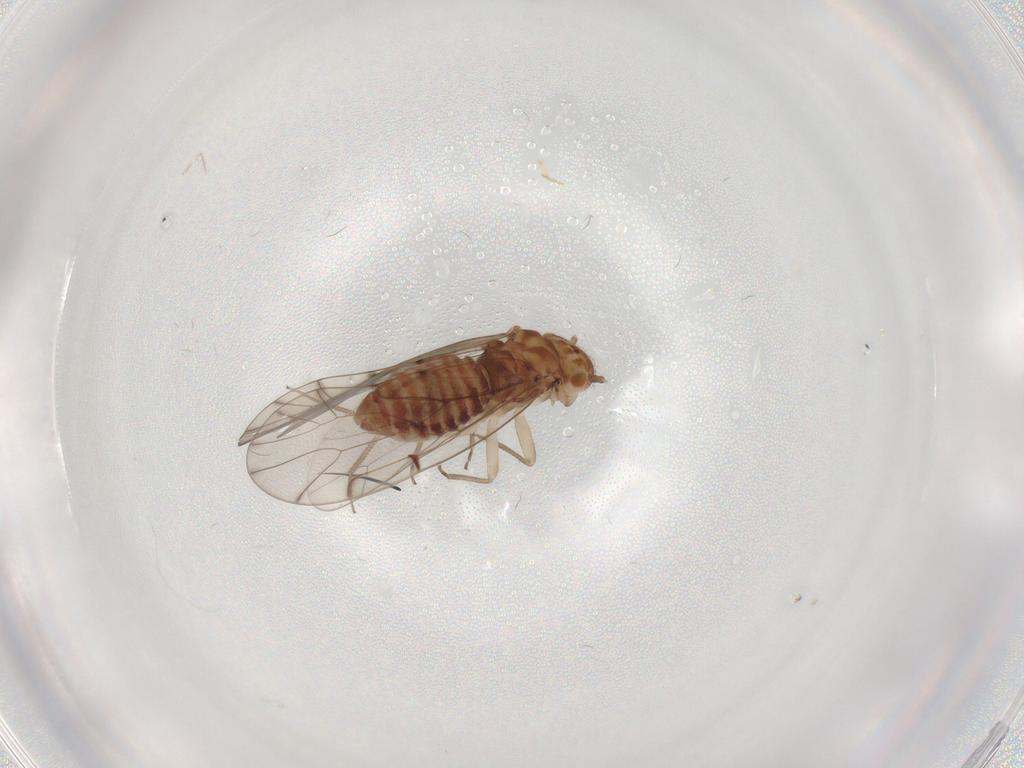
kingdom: Animalia
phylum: Arthropoda
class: Insecta
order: Hemiptera
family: Cicadellidae
